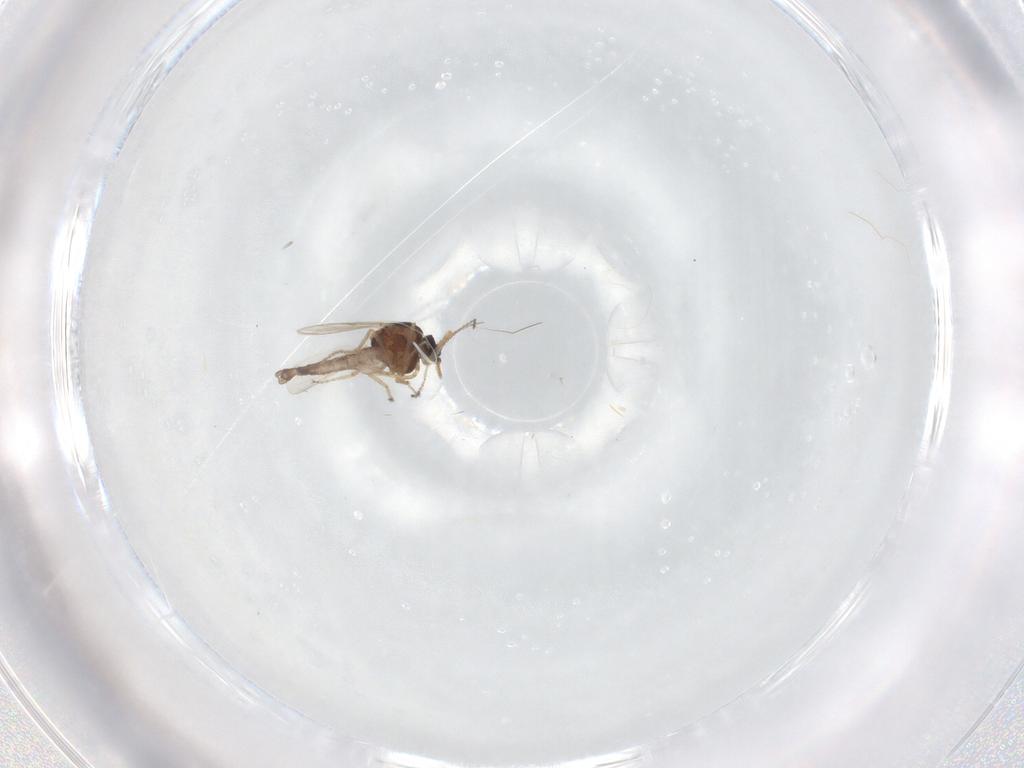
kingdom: Animalia
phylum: Arthropoda
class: Insecta
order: Diptera
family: Ceratopogonidae
